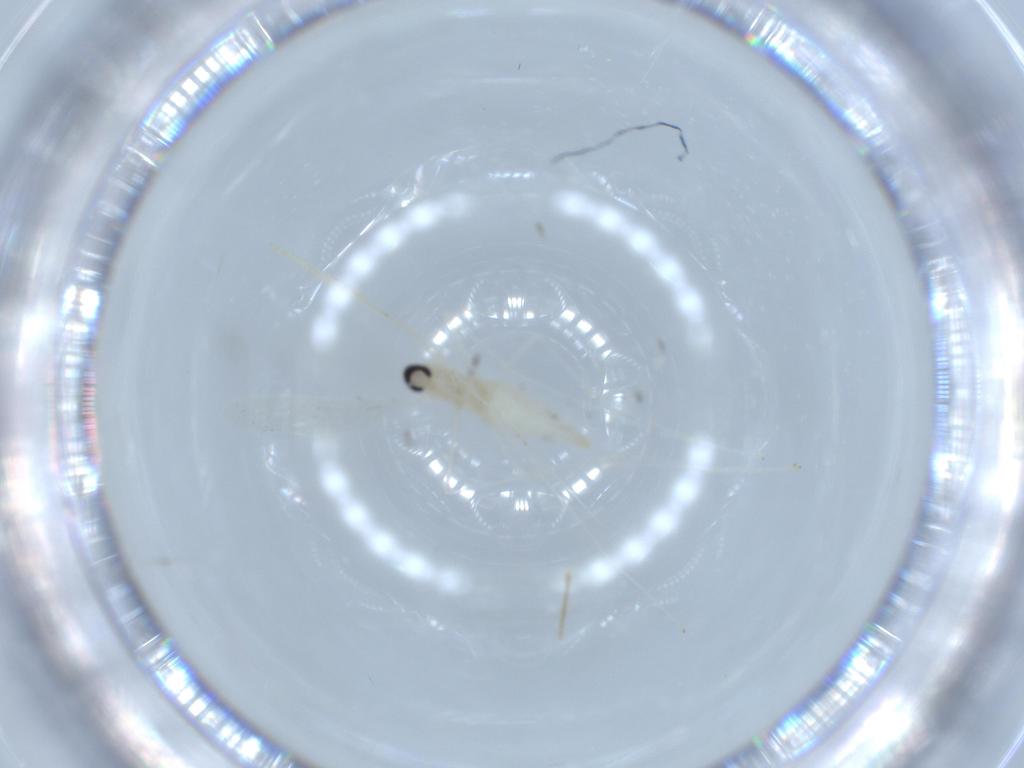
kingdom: Animalia
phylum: Arthropoda
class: Insecta
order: Diptera
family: Cecidomyiidae
